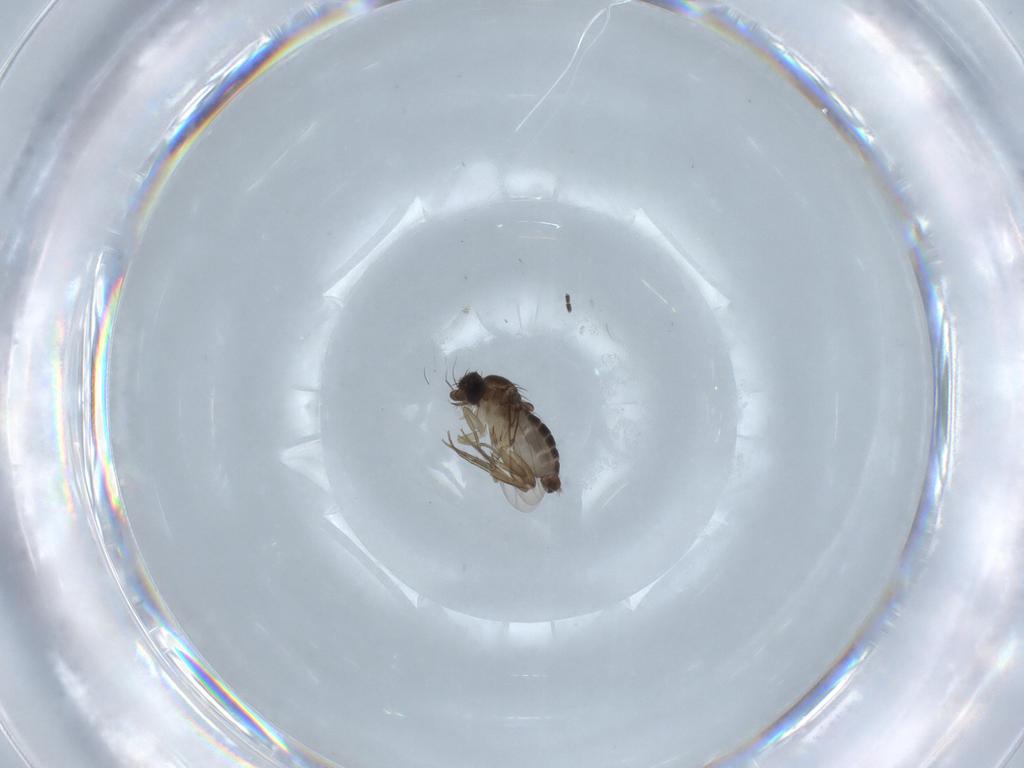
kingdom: Animalia
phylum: Arthropoda
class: Insecta
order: Diptera
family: Phoridae
